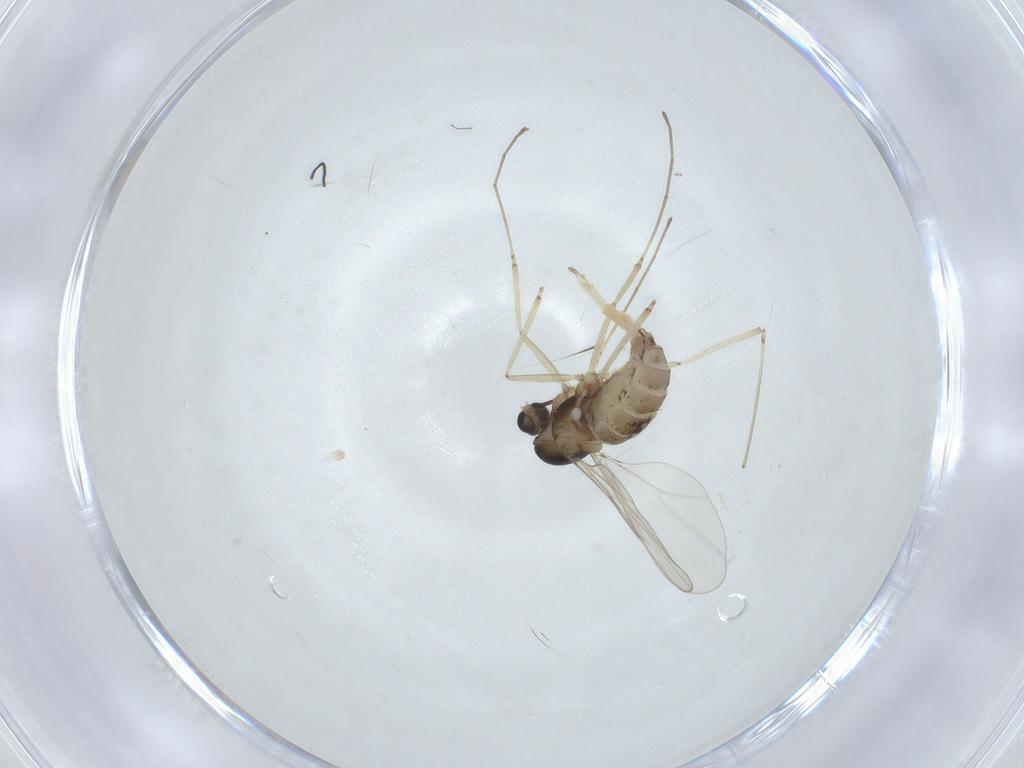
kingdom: Animalia
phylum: Arthropoda
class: Insecta
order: Diptera
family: Cecidomyiidae
